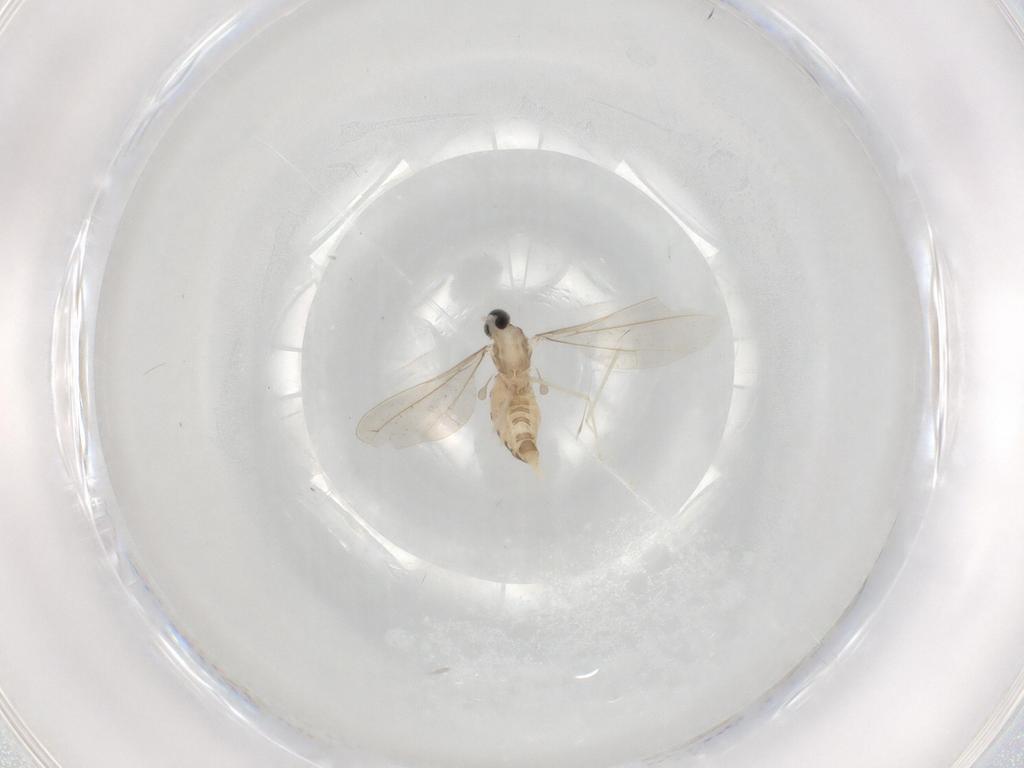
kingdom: Animalia
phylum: Arthropoda
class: Insecta
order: Diptera
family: Cecidomyiidae
